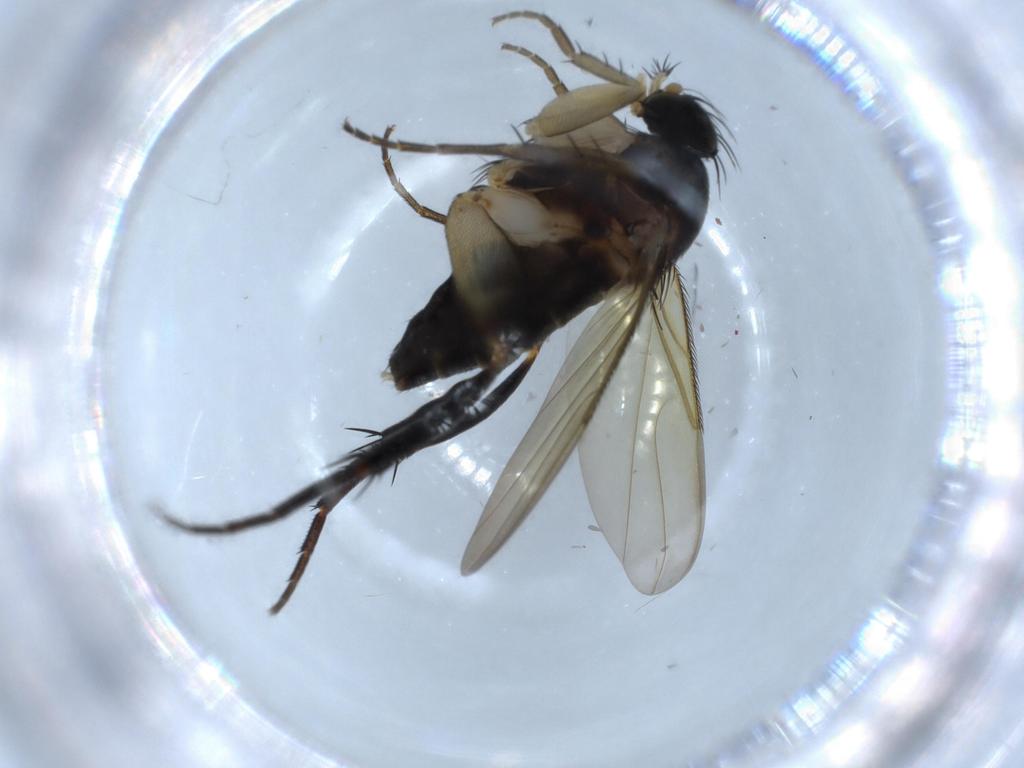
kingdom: Animalia
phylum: Arthropoda
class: Insecta
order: Diptera
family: Phoridae
